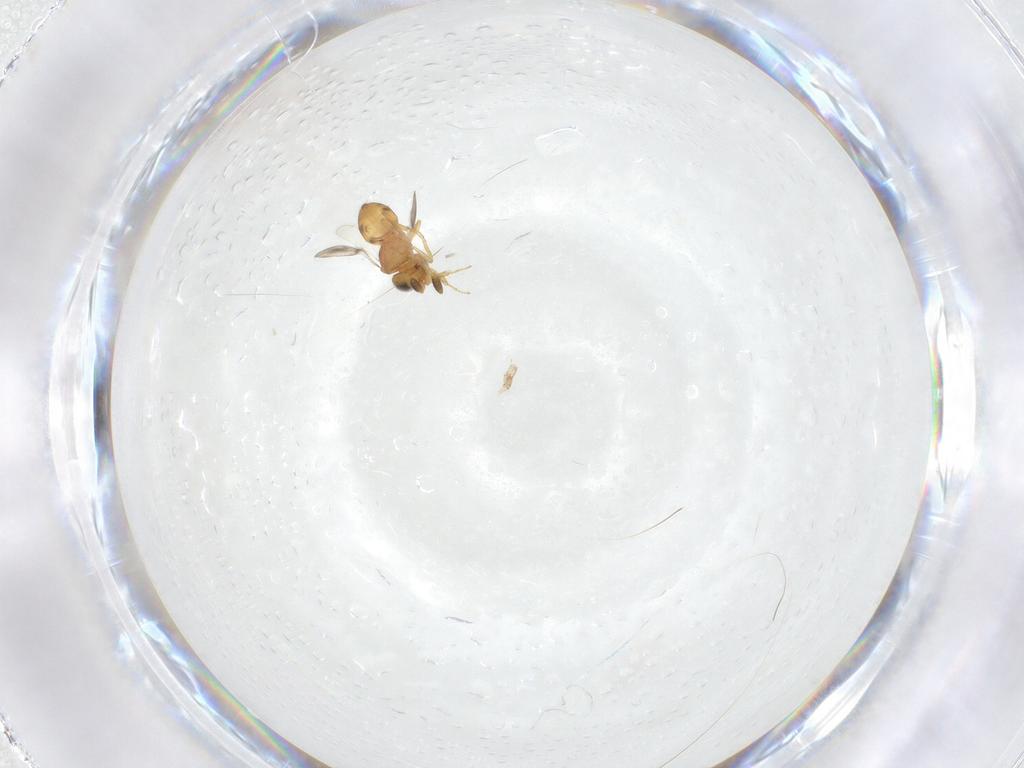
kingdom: Animalia
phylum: Arthropoda
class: Insecta
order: Hymenoptera
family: Scelionidae
